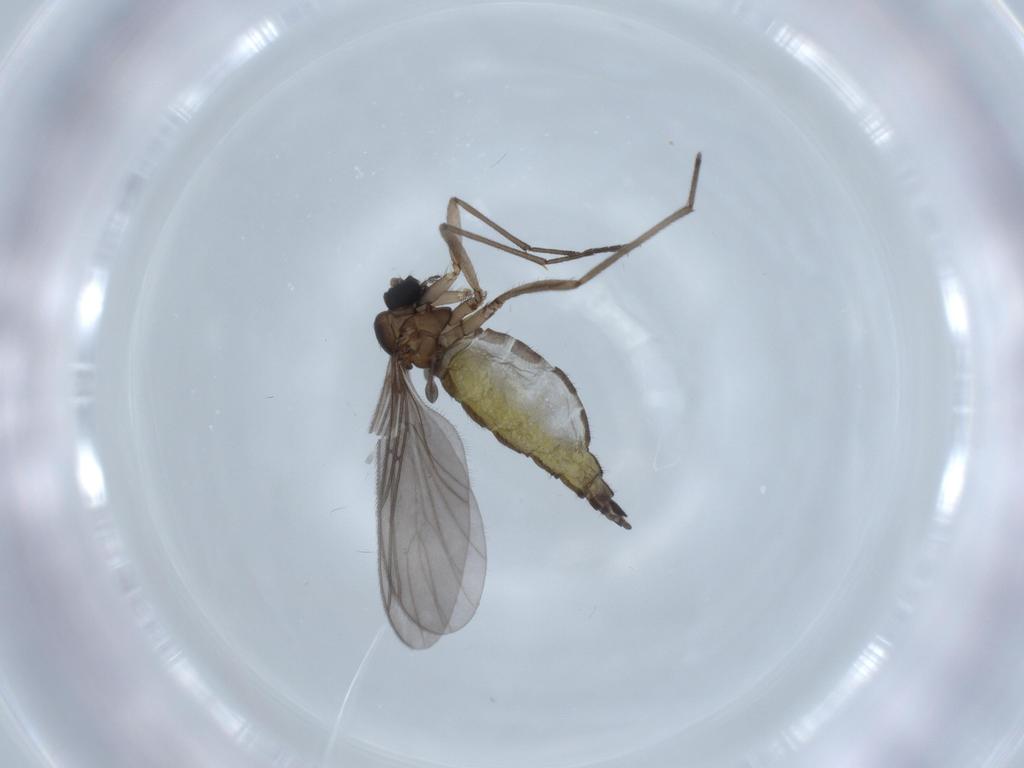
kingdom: Animalia
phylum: Arthropoda
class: Insecta
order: Diptera
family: Sciaridae
